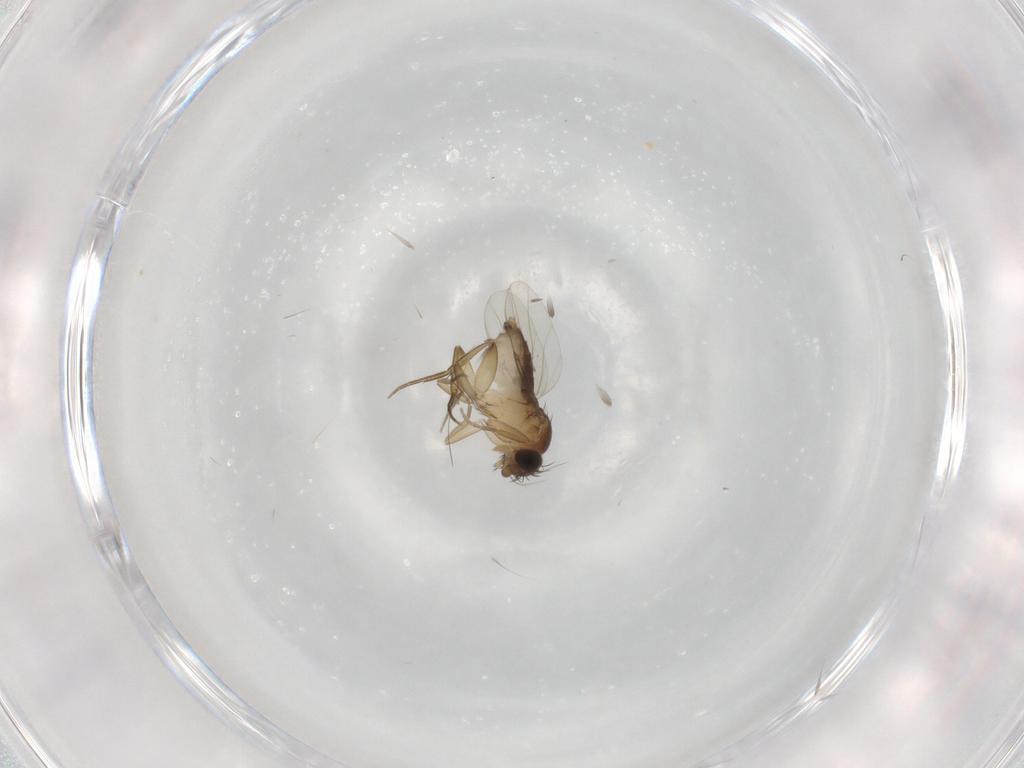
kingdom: Animalia
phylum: Arthropoda
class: Insecta
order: Diptera
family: Phoridae
